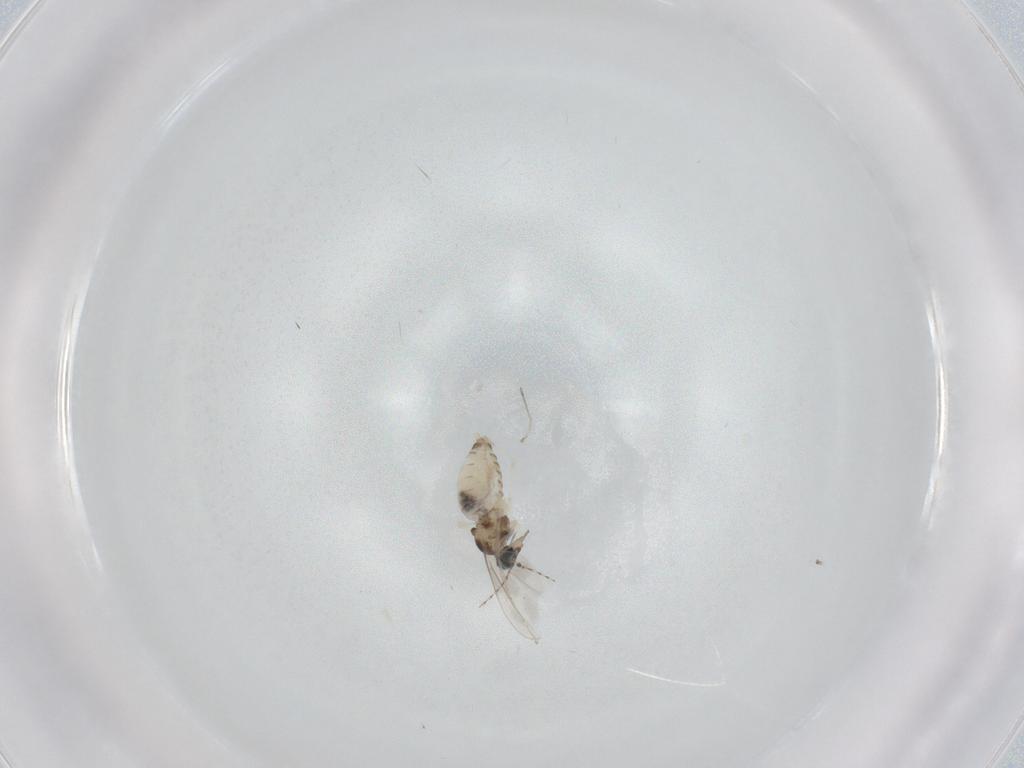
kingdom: Animalia
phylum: Arthropoda
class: Insecta
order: Diptera
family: Cecidomyiidae
